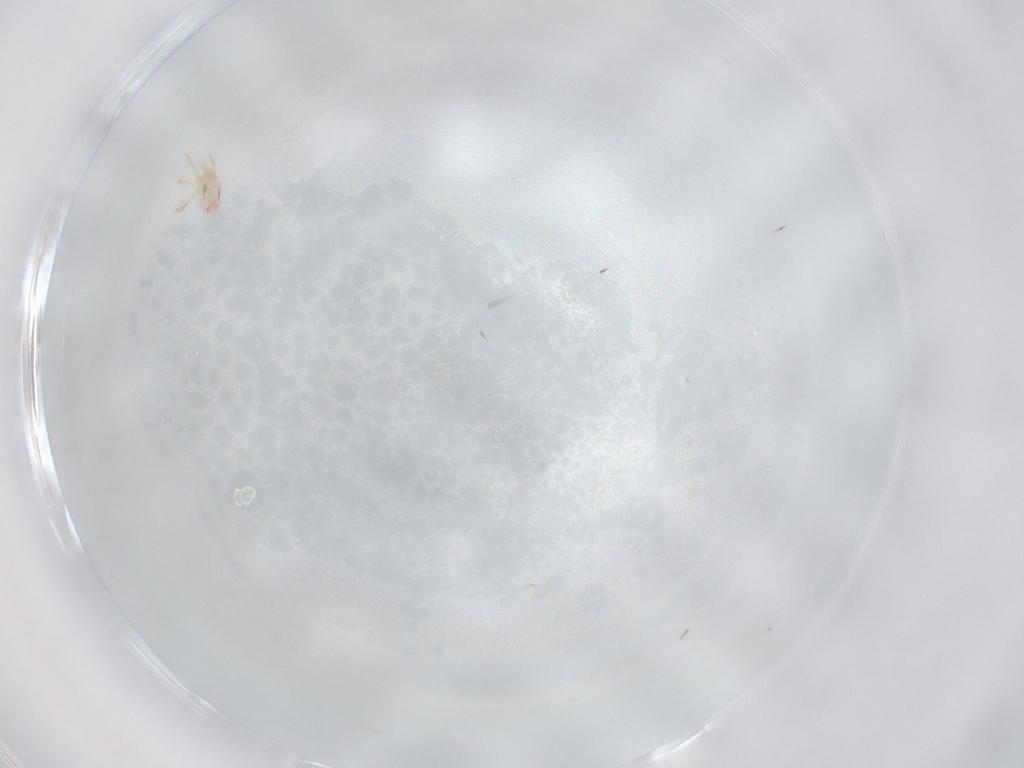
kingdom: Animalia
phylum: Arthropoda
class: Arachnida
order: Trombidiformes
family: Microtrombidiidae
